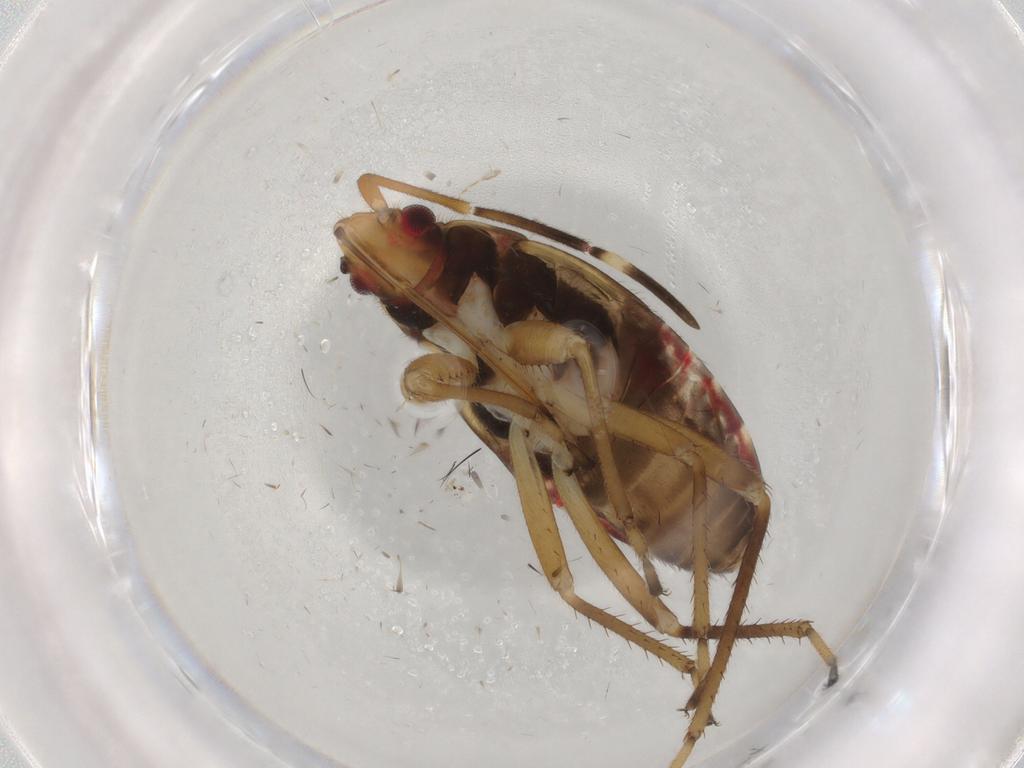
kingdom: Animalia
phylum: Arthropoda
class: Insecta
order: Hemiptera
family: Rhyparochromidae
